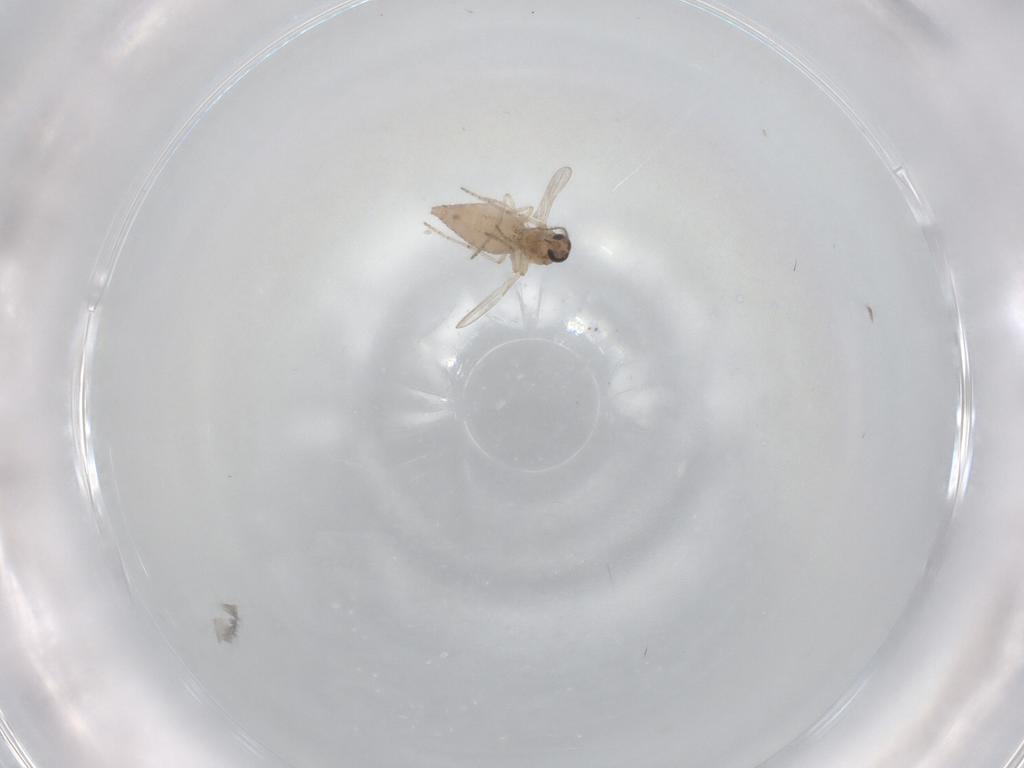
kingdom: Animalia
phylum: Arthropoda
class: Insecta
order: Diptera
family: Ceratopogonidae
